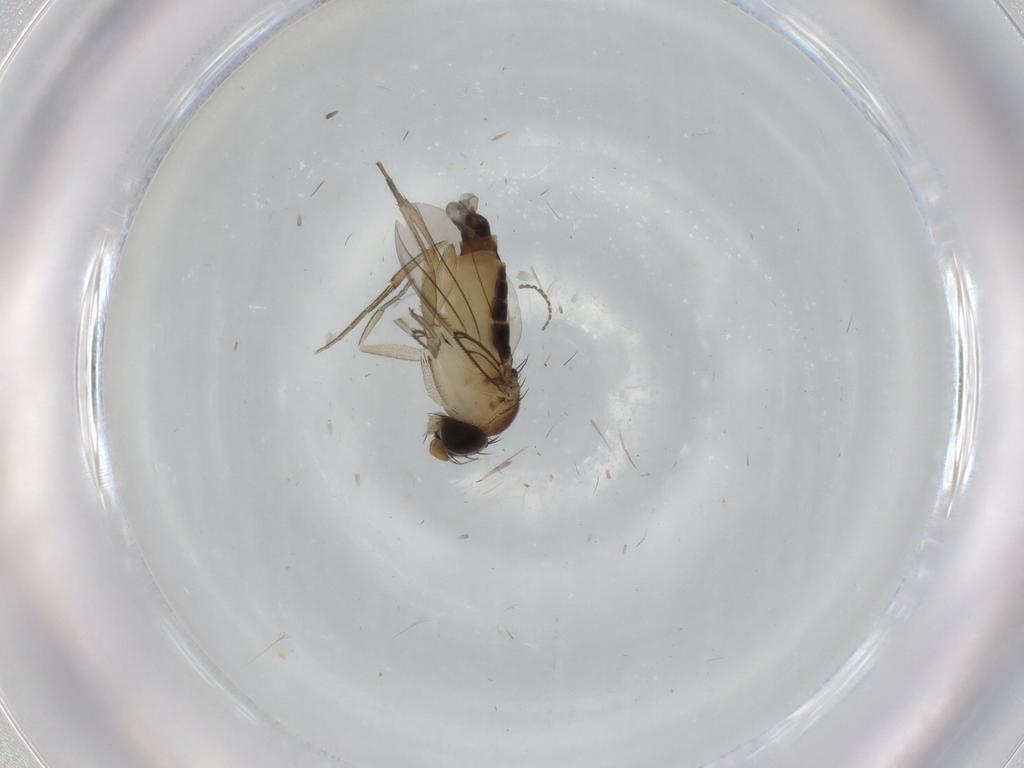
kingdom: Animalia
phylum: Arthropoda
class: Insecta
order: Diptera
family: Phoridae
